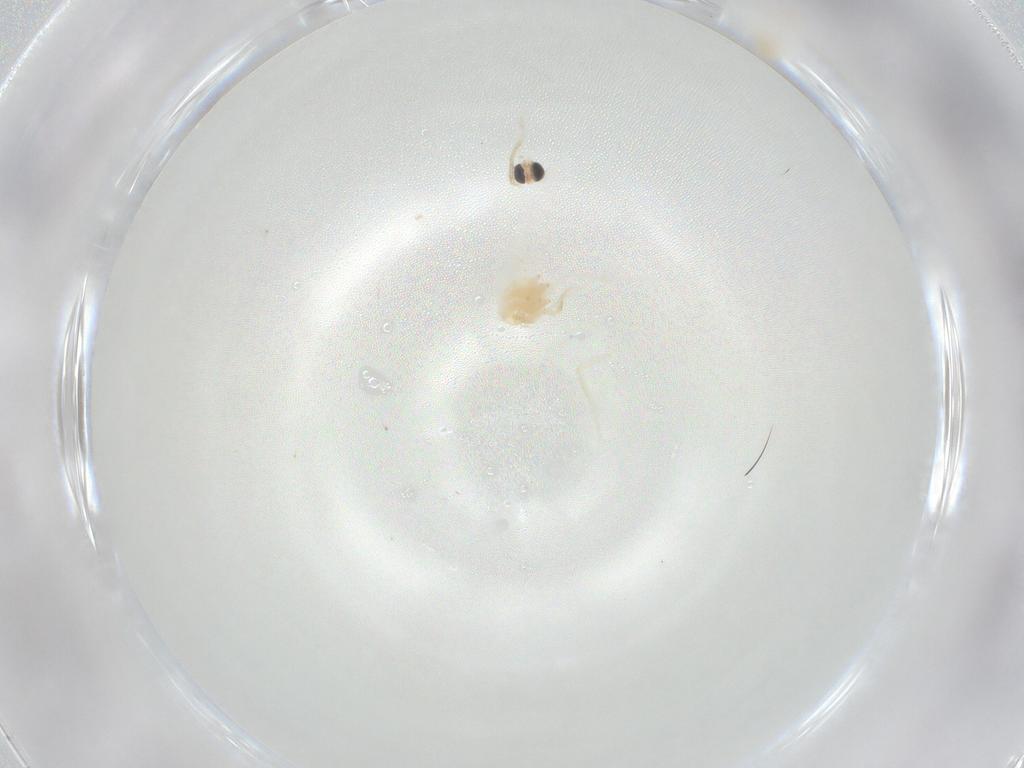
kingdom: Animalia
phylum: Arthropoda
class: Insecta
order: Lepidoptera
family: Nepticulidae
